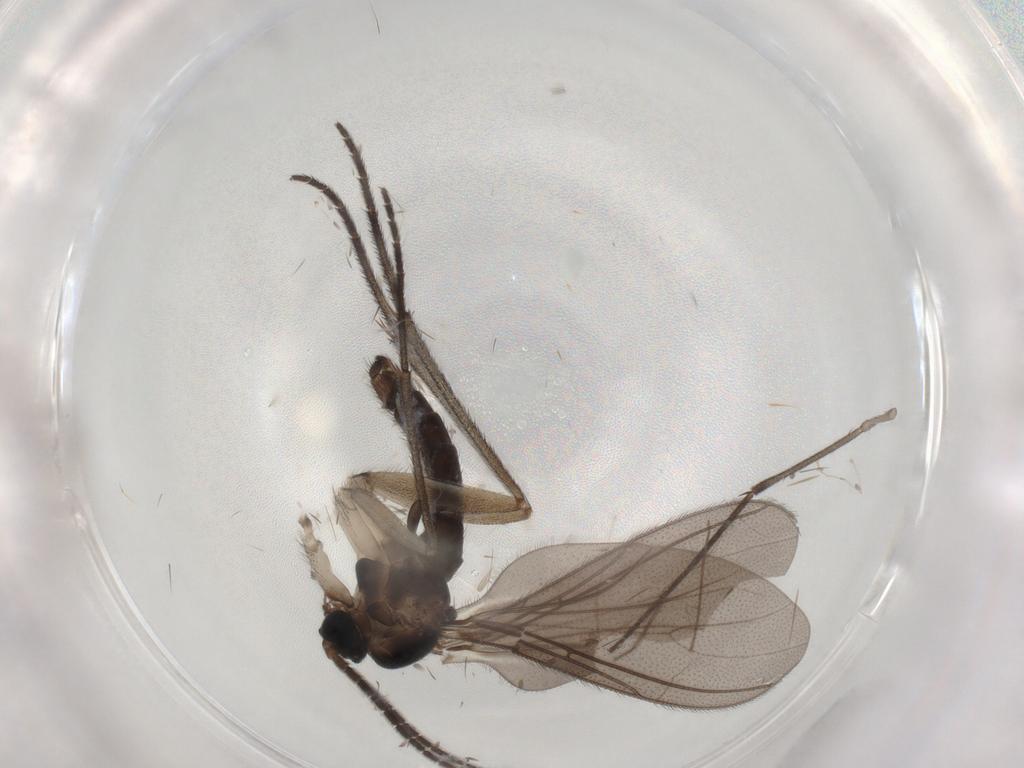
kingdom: Animalia
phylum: Arthropoda
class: Insecta
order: Diptera
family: Sciaridae
